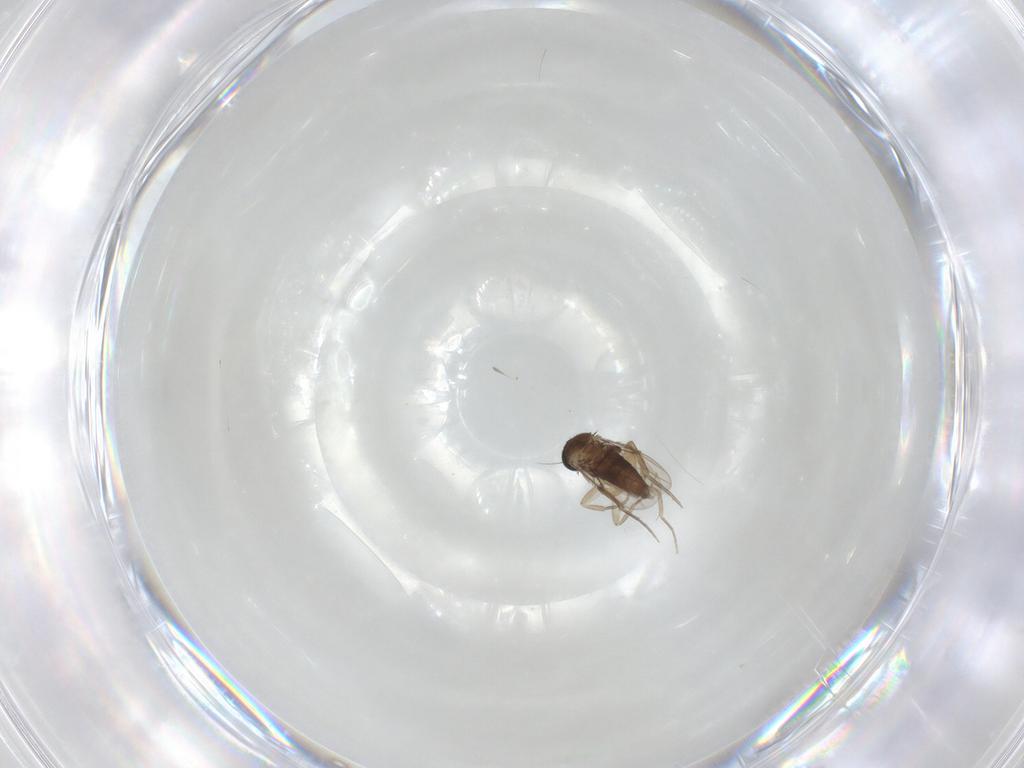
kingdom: Animalia
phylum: Arthropoda
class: Insecta
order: Diptera
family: Phoridae
